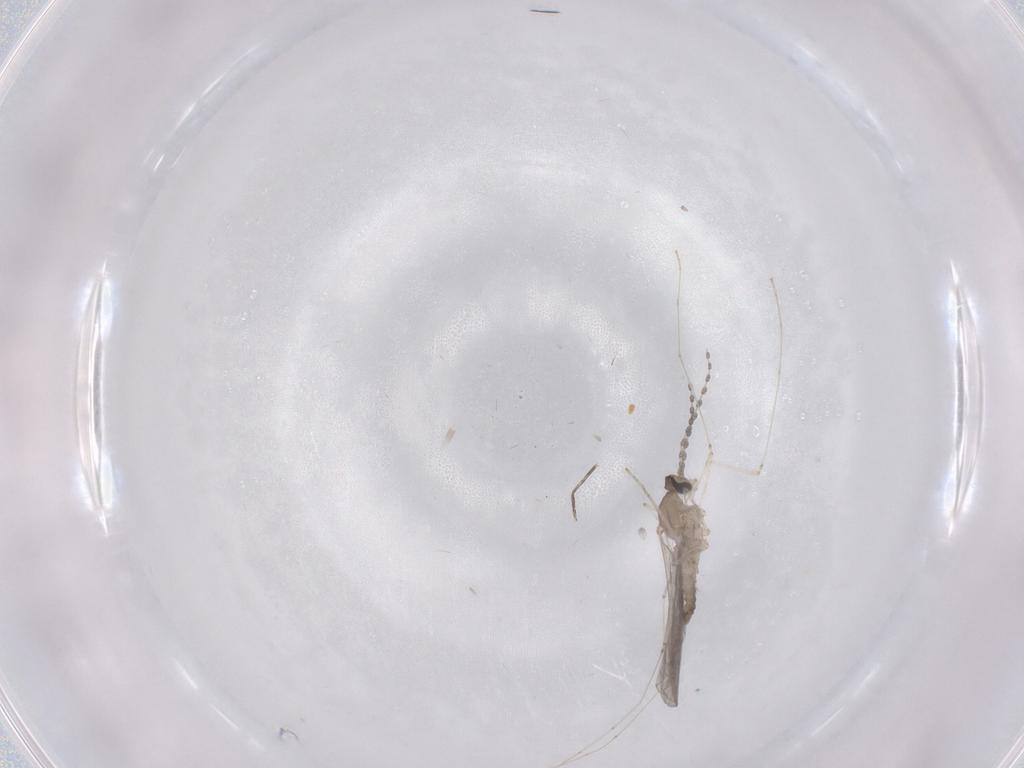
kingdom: Animalia
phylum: Arthropoda
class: Insecta
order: Diptera
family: Cecidomyiidae
